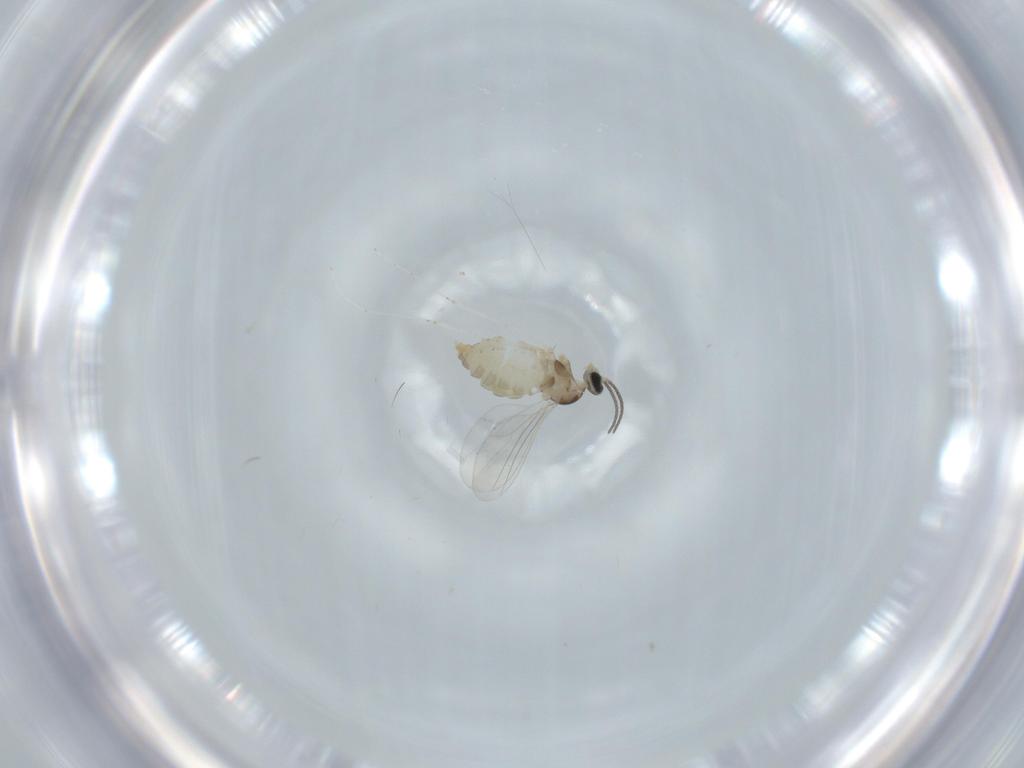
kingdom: Animalia
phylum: Arthropoda
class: Insecta
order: Diptera
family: Cecidomyiidae
